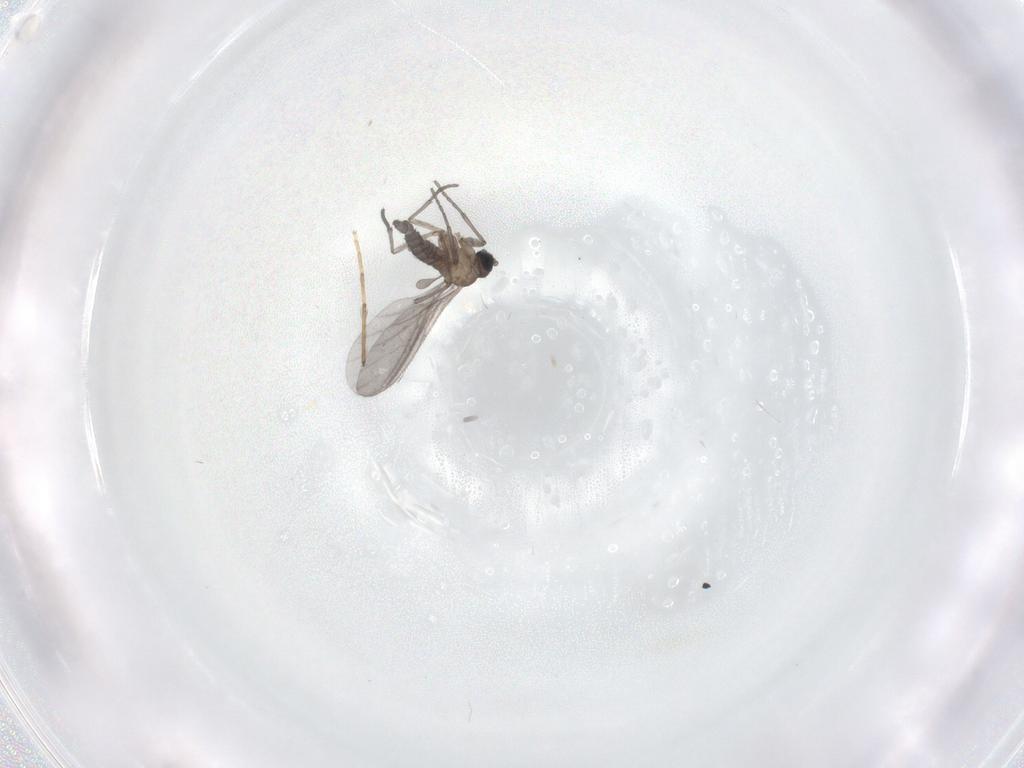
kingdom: Animalia
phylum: Arthropoda
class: Insecta
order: Diptera
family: Sciaridae
